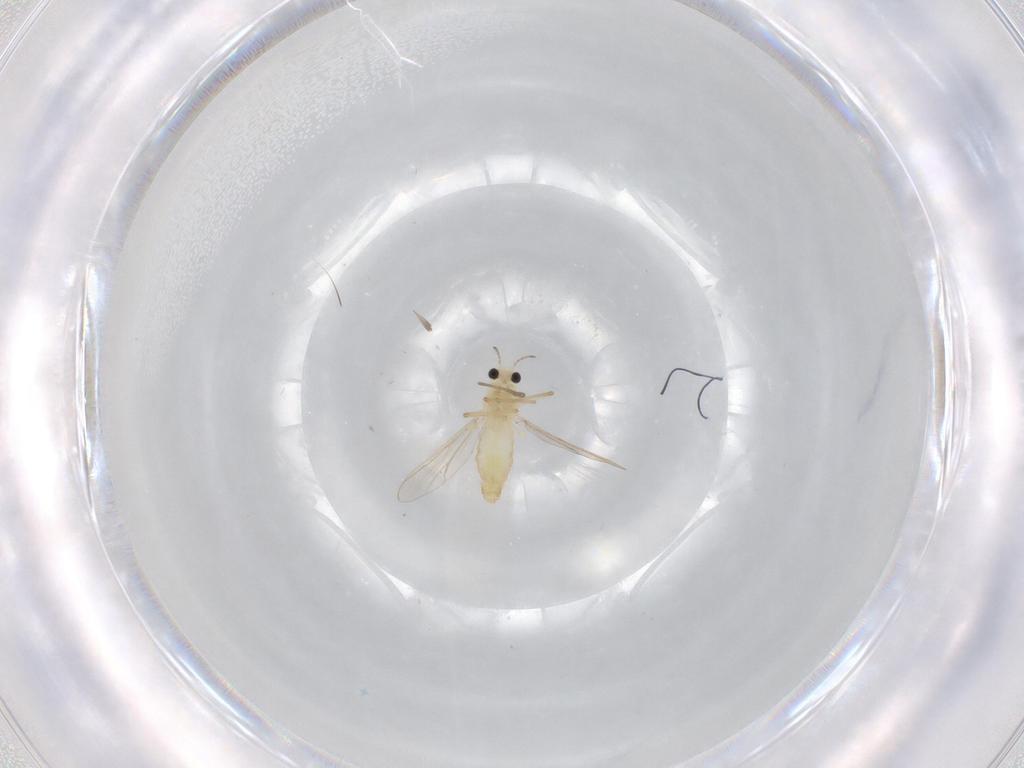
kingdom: Animalia
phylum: Arthropoda
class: Insecta
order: Diptera
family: Chironomidae
